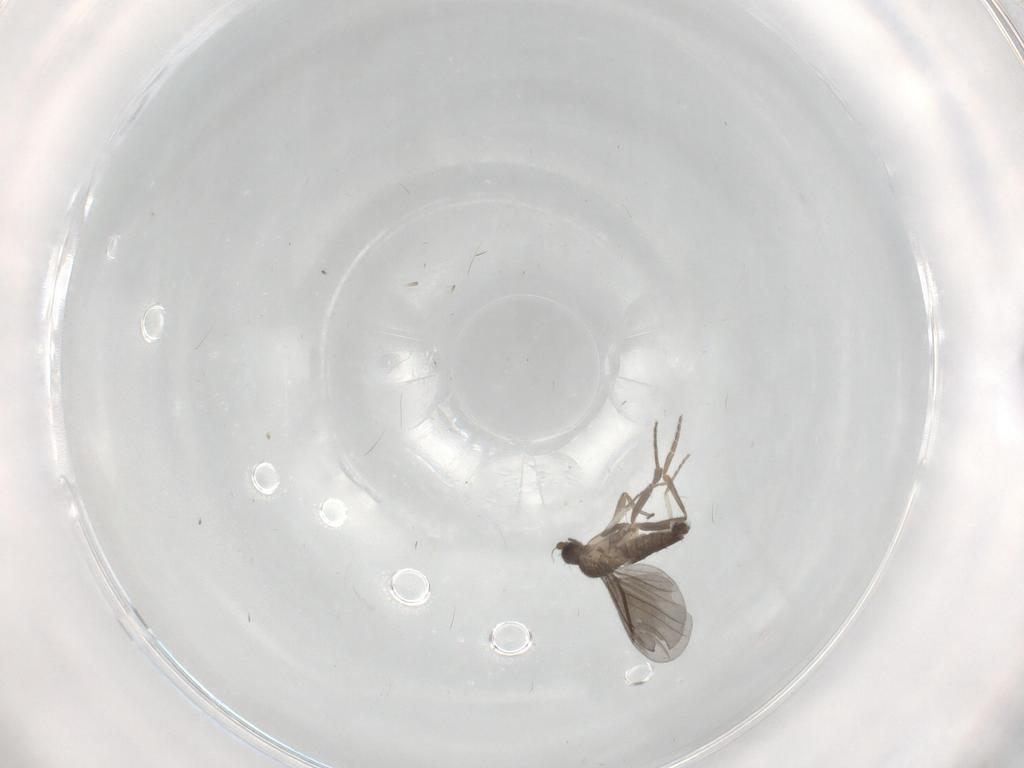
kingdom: Animalia
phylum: Arthropoda
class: Insecta
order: Diptera
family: Phoridae
